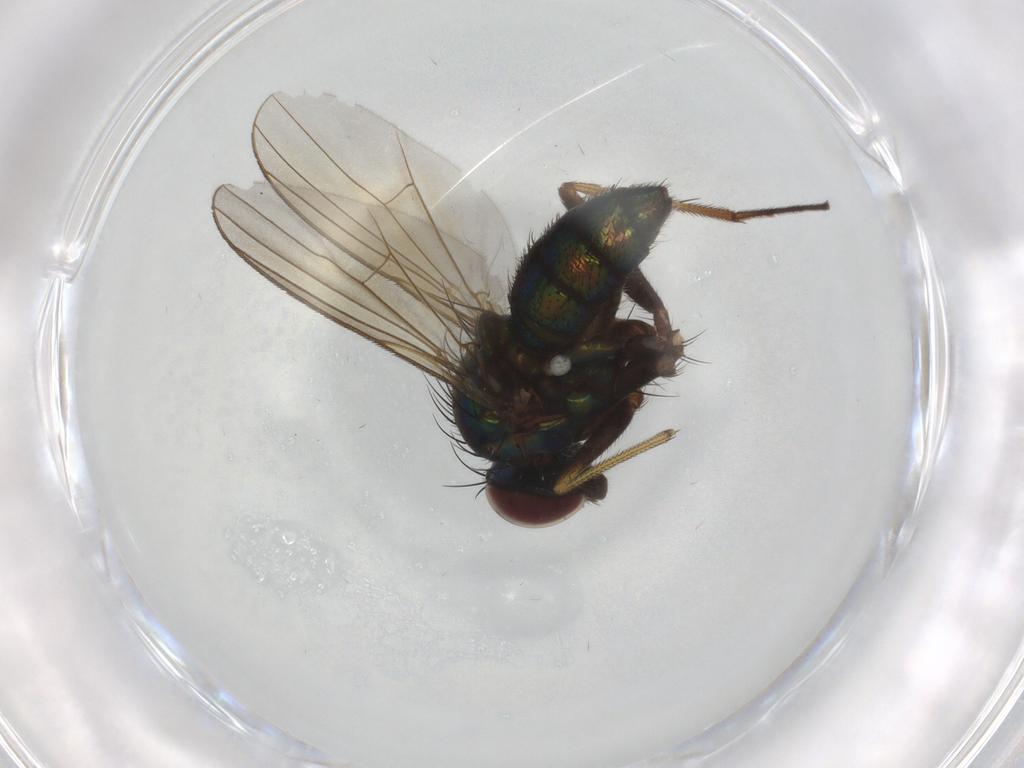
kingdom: Animalia
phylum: Arthropoda
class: Insecta
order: Diptera
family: Dolichopodidae
